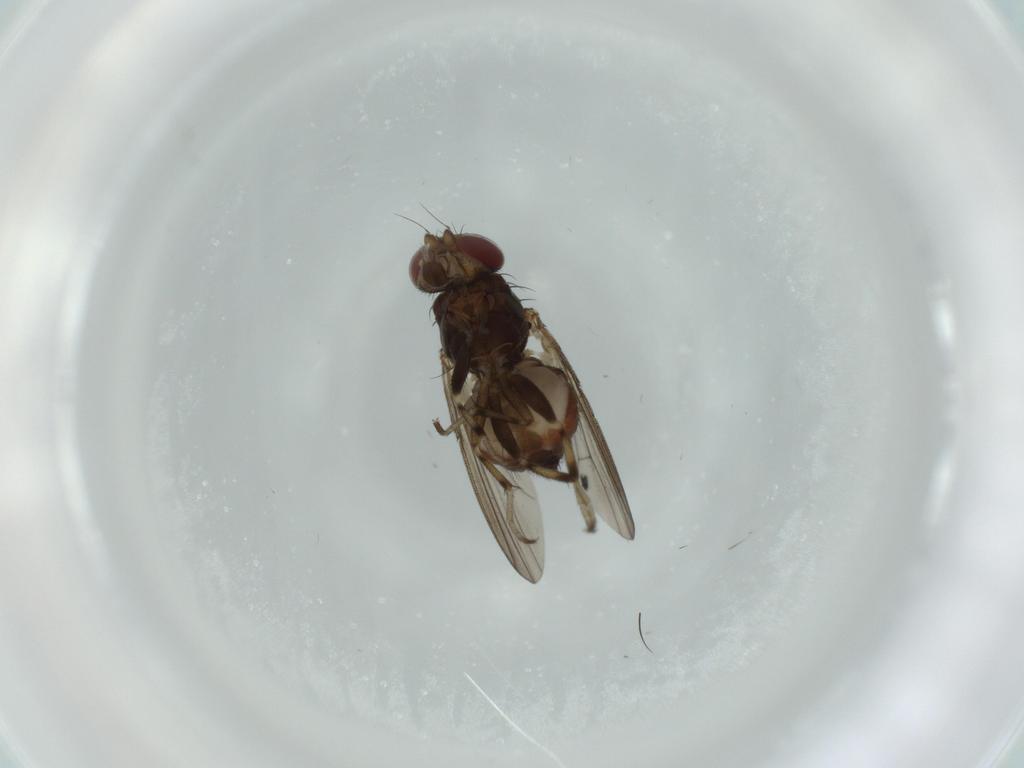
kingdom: Animalia
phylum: Arthropoda
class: Insecta
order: Diptera
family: Heleomyzidae
